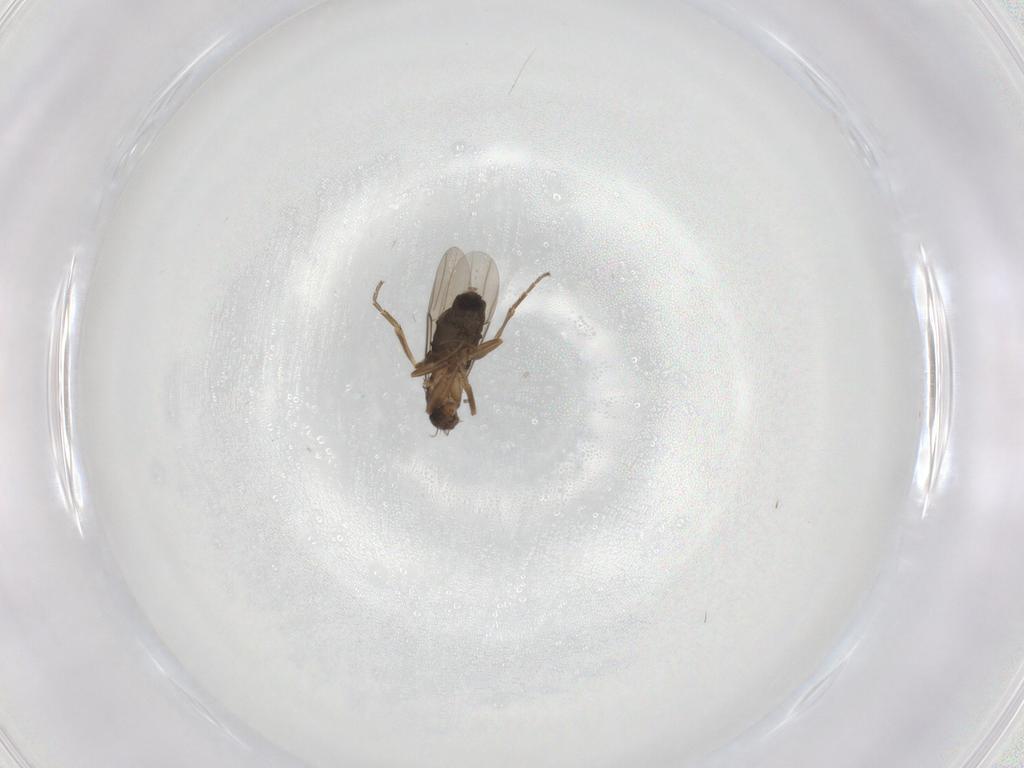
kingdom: Animalia
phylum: Arthropoda
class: Insecta
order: Diptera
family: Phoridae
